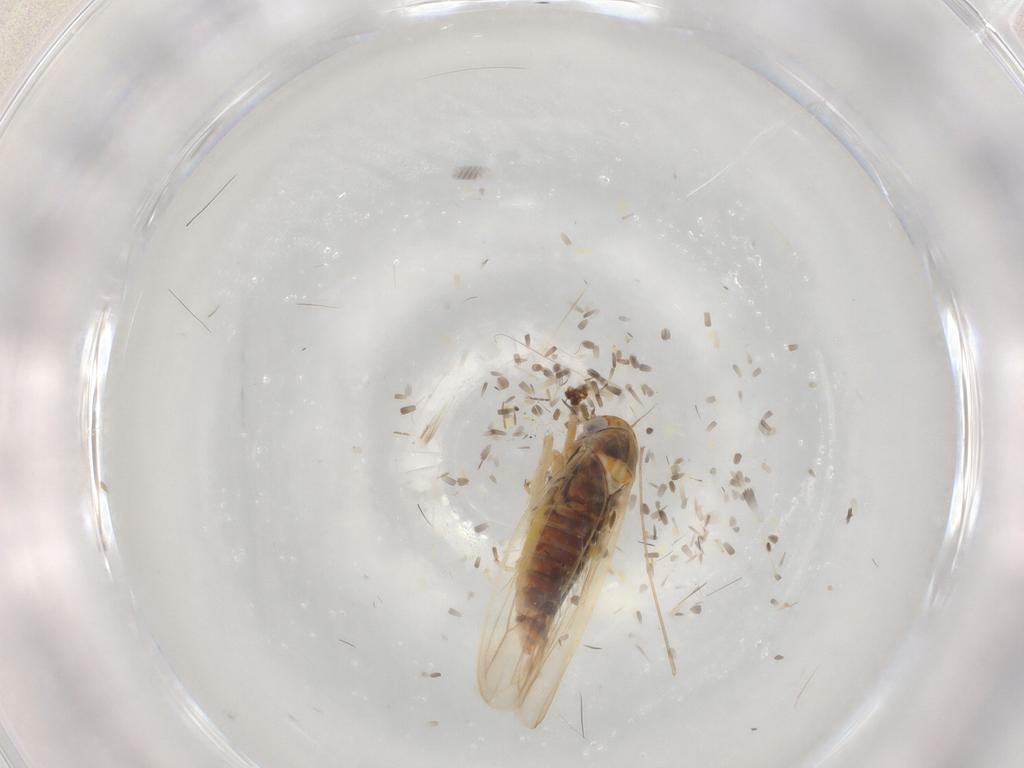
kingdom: Animalia
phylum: Arthropoda
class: Insecta
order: Hemiptera
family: Cicadellidae
